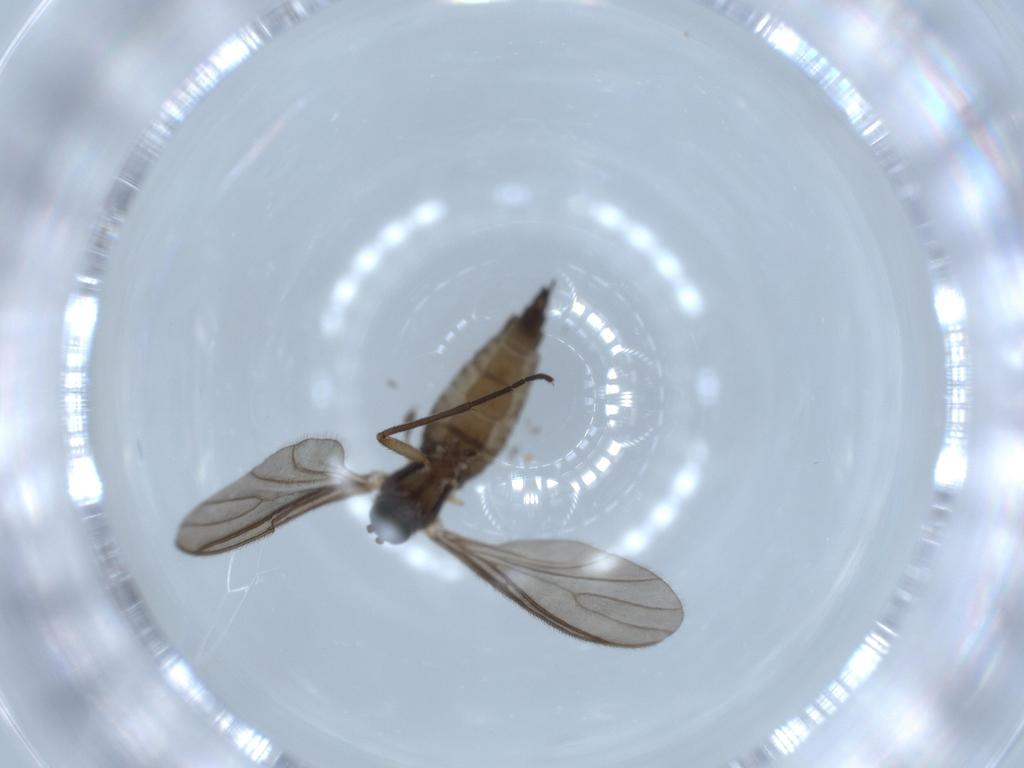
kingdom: Animalia
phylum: Arthropoda
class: Insecta
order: Diptera
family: Sciaridae
